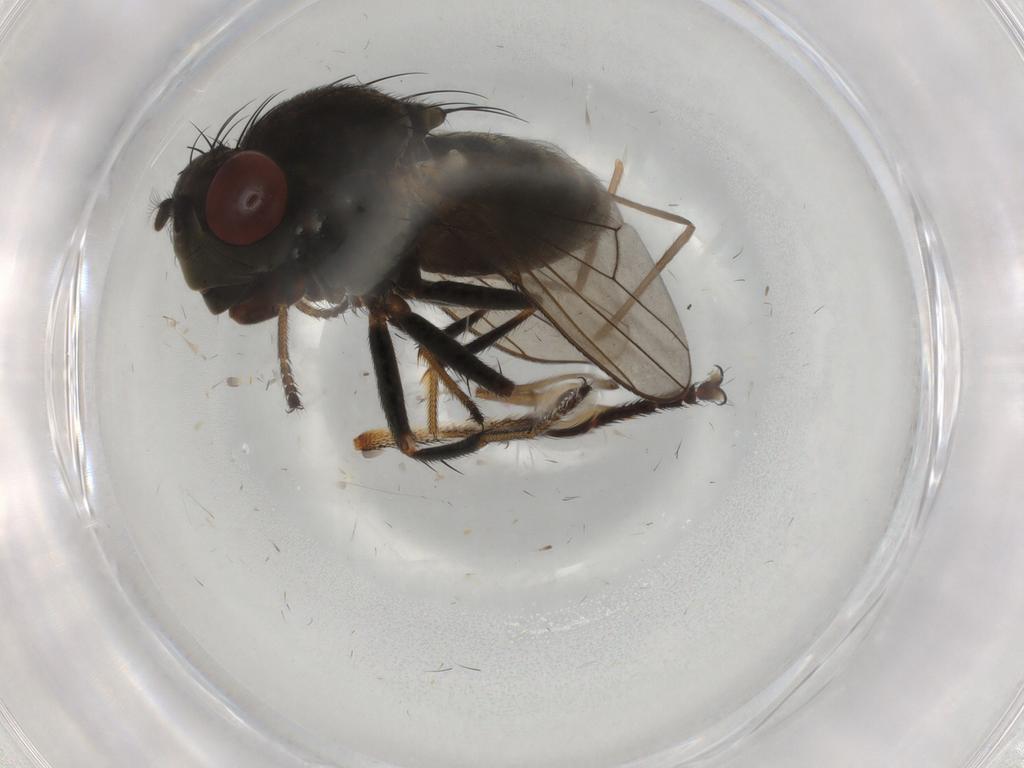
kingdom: Animalia
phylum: Arthropoda
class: Insecta
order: Diptera
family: Ephydridae
